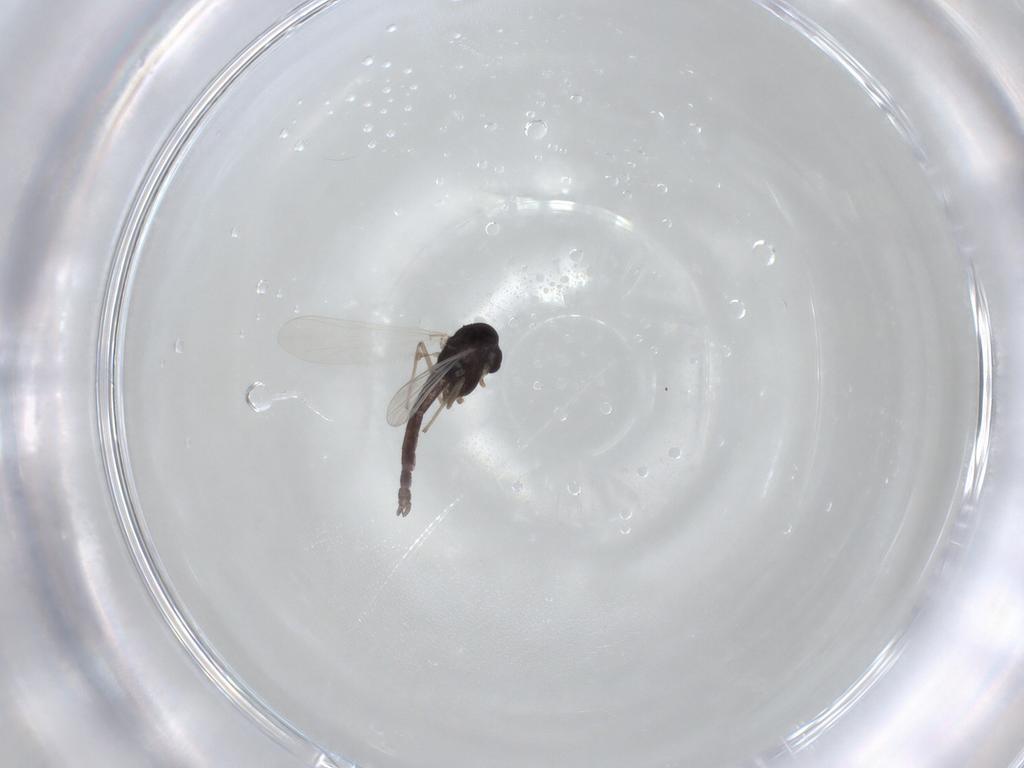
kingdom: Animalia
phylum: Arthropoda
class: Insecta
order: Diptera
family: Chironomidae
